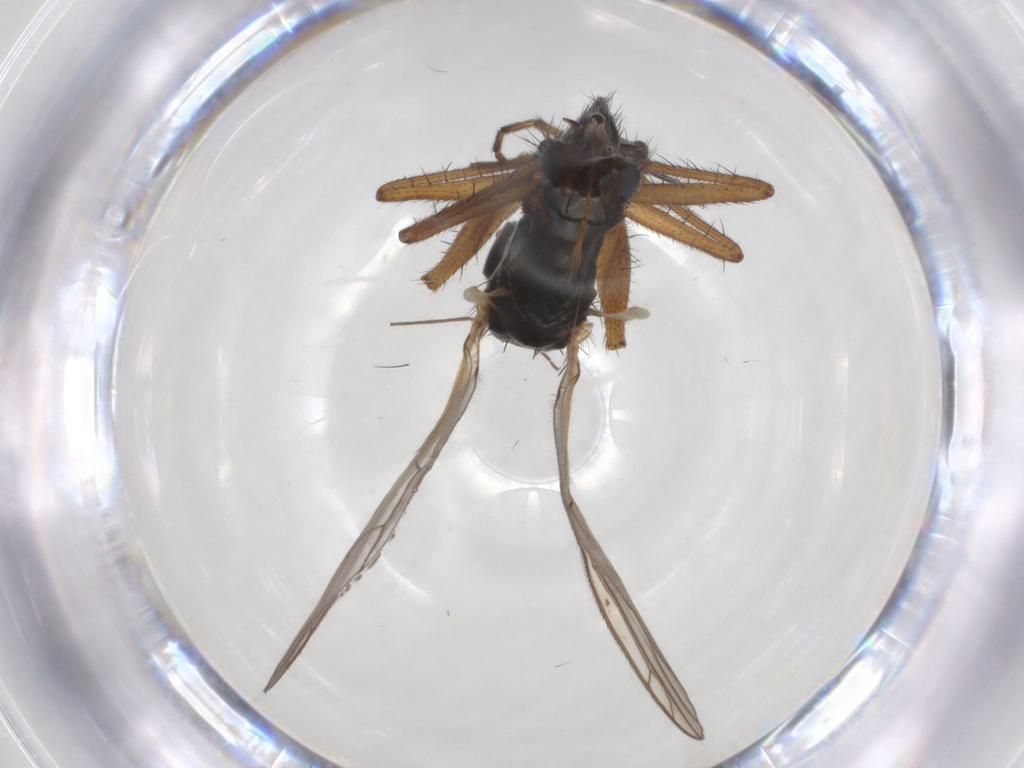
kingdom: Animalia
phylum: Arthropoda
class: Insecta
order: Diptera
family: Empididae
